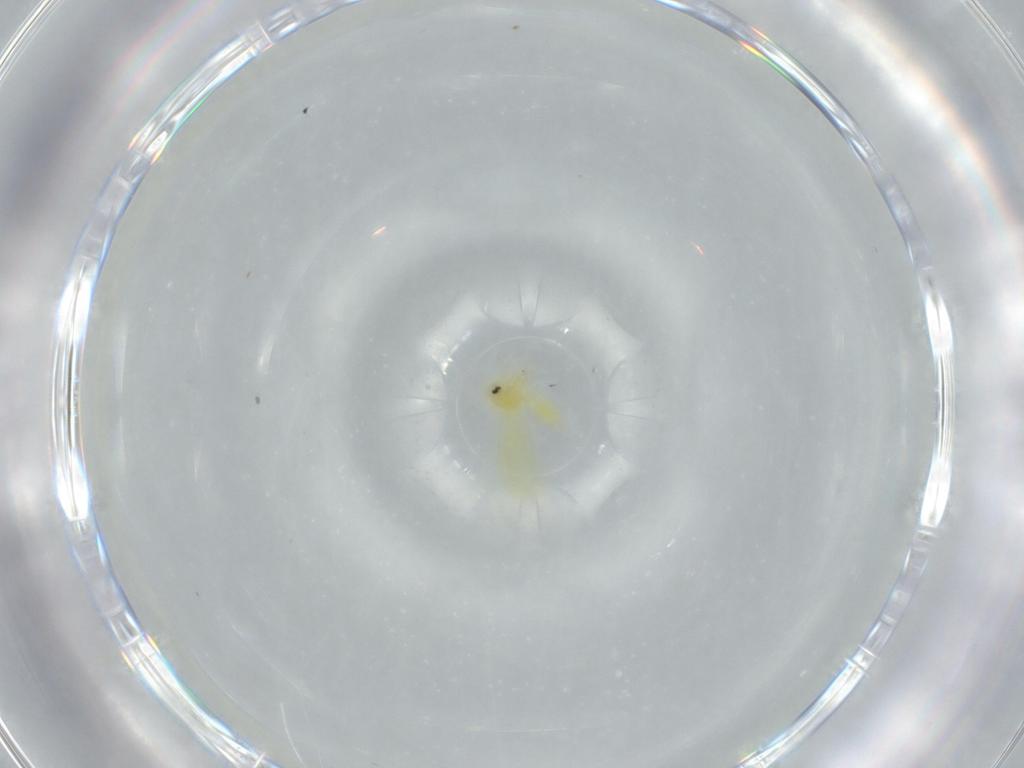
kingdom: Animalia
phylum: Arthropoda
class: Insecta
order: Hemiptera
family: Aleyrodidae
